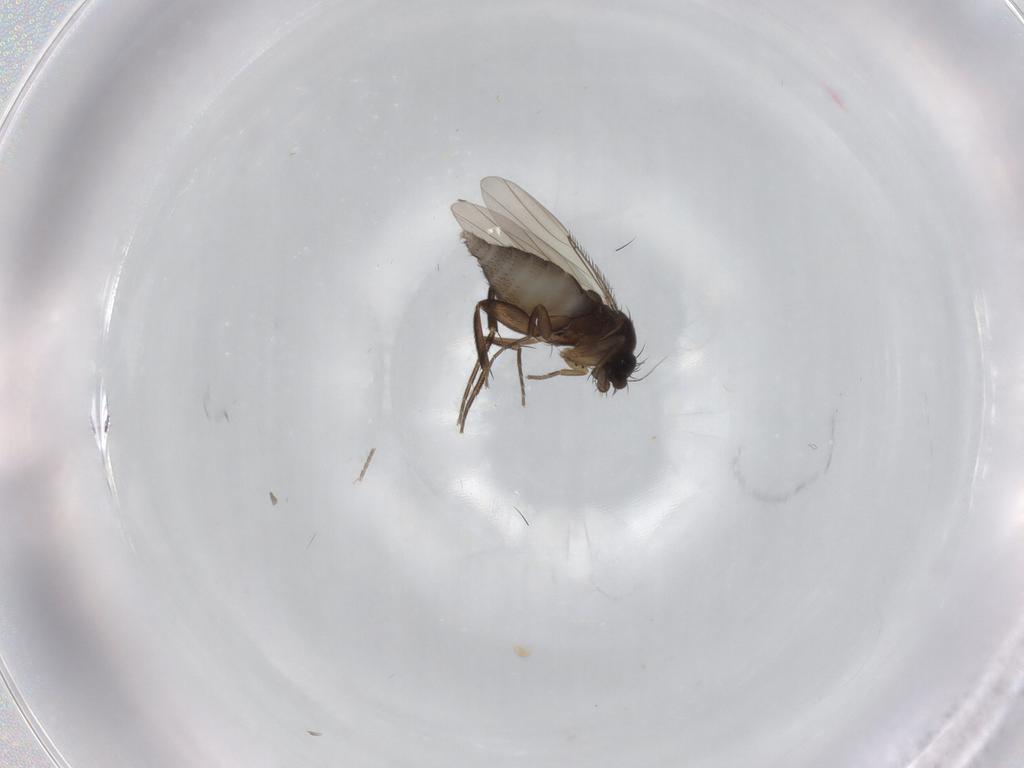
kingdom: Animalia
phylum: Arthropoda
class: Insecta
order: Diptera
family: Phoridae
